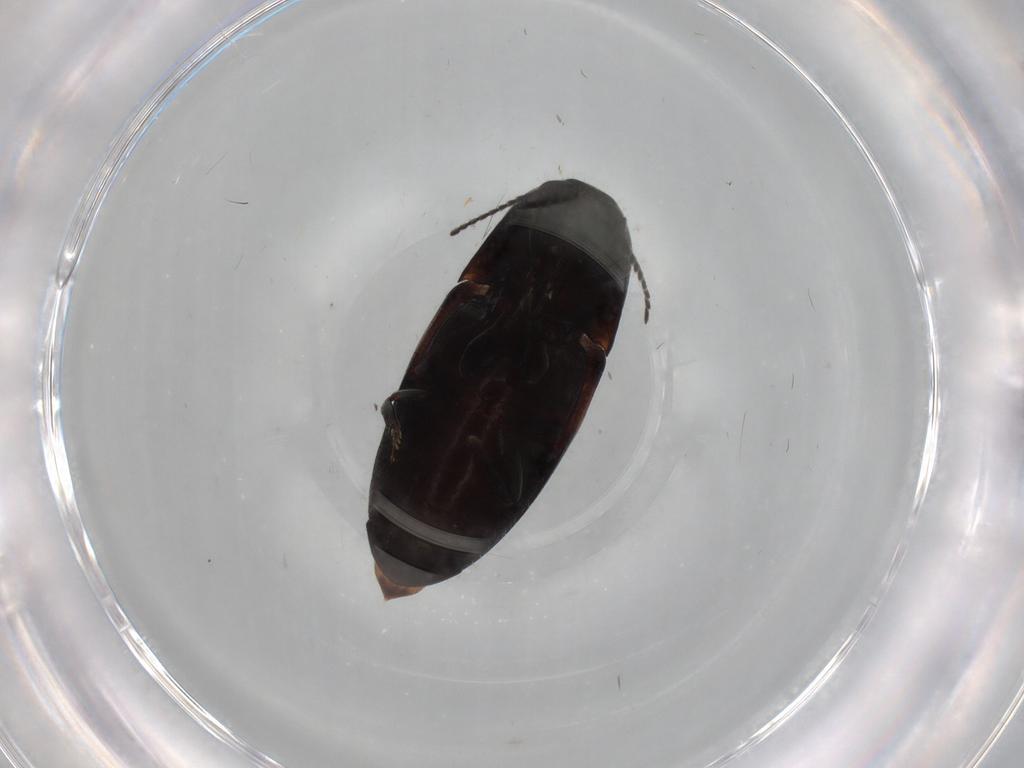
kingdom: Animalia
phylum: Arthropoda
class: Insecta
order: Coleoptera
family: Elateridae
